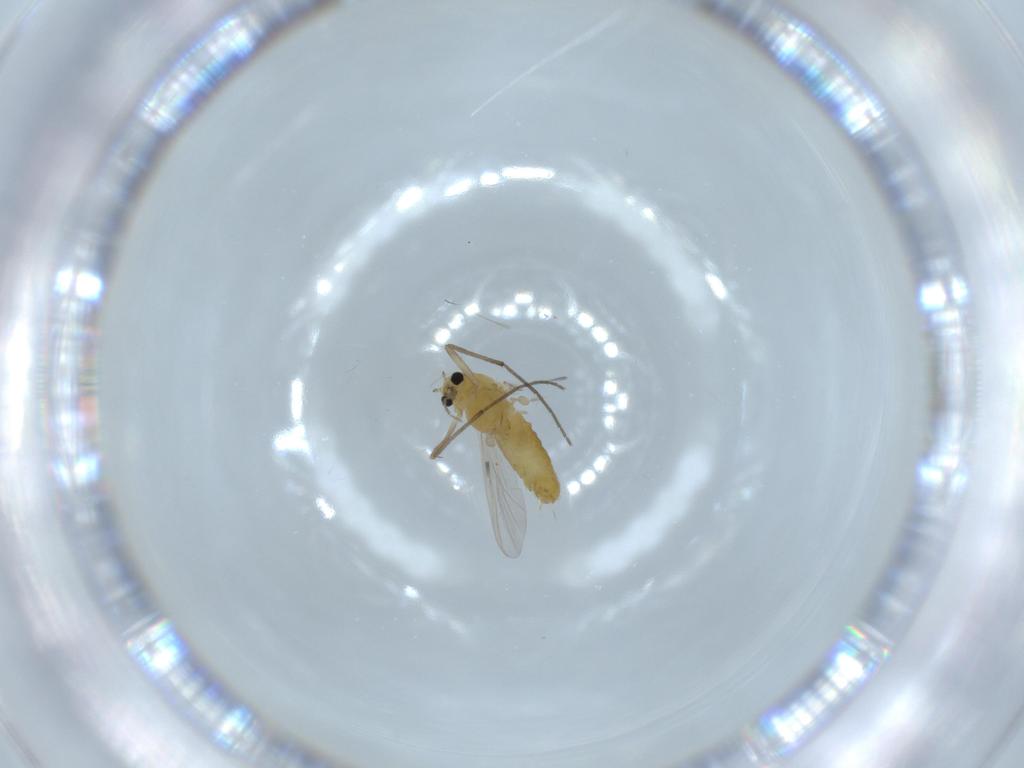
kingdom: Animalia
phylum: Arthropoda
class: Insecta
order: Diptera
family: Chironomidae
